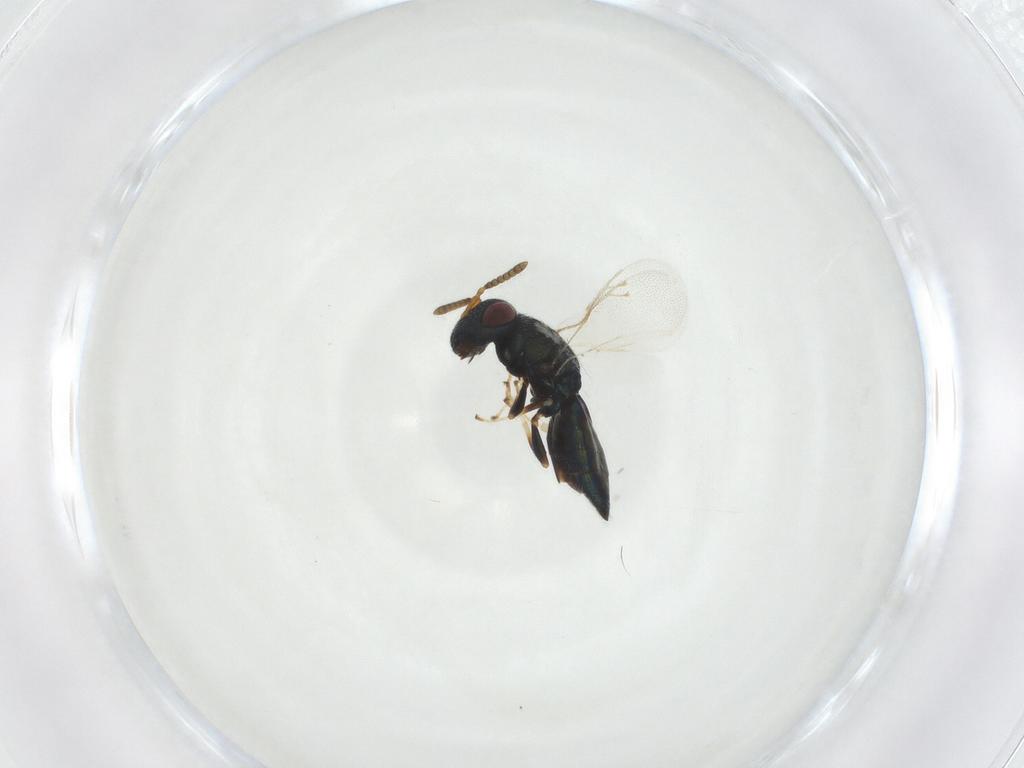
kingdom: Animalia
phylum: Arthropoda
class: Insecta
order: Hymenoptera
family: Pteromalidae
